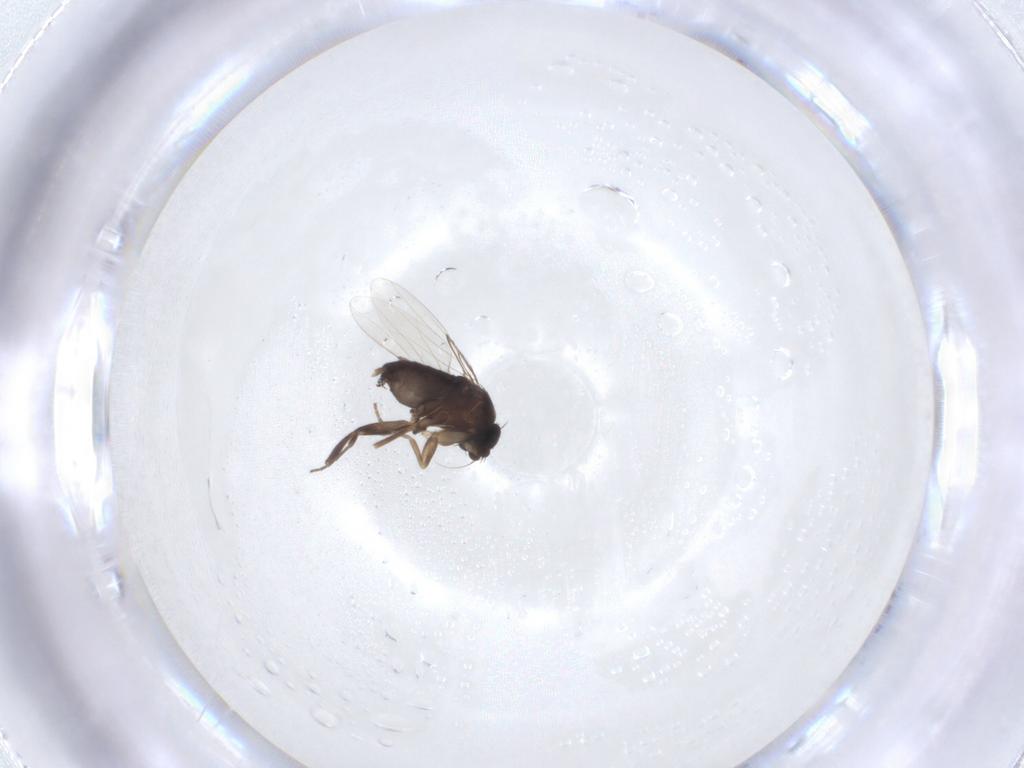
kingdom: Animalia
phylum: Arthropoda
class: Insecta
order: Diptera
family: Phoridae
